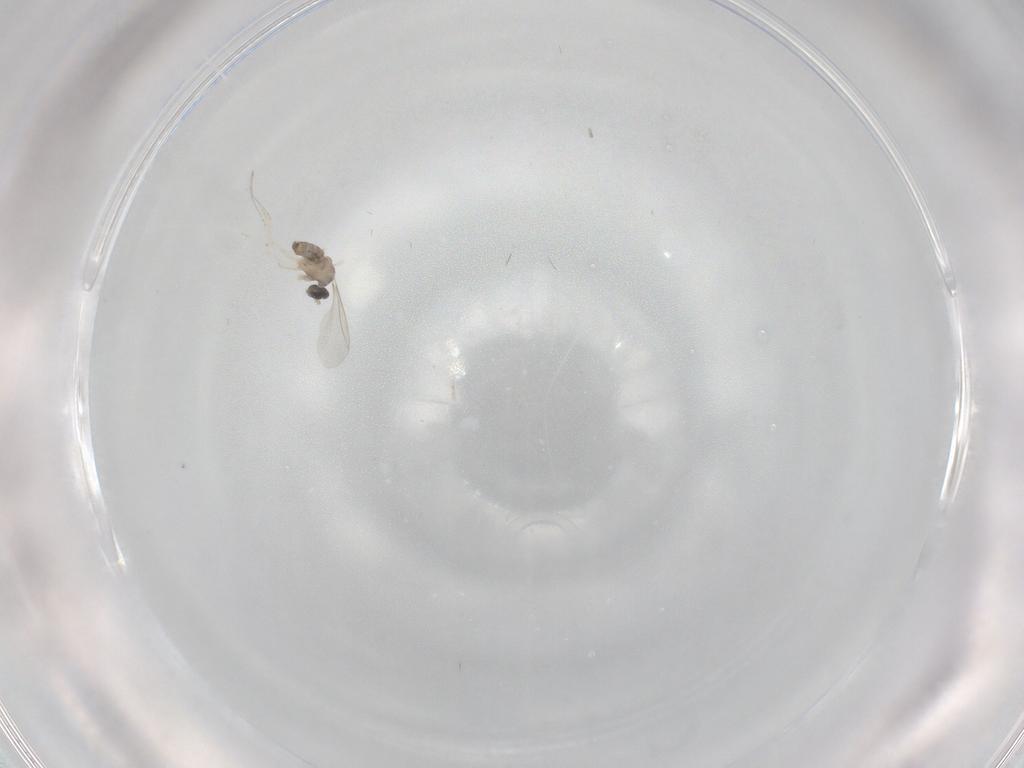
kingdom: Animalia
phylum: Arthropoda
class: Insecta
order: Diptera
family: Cecidomyiidae
